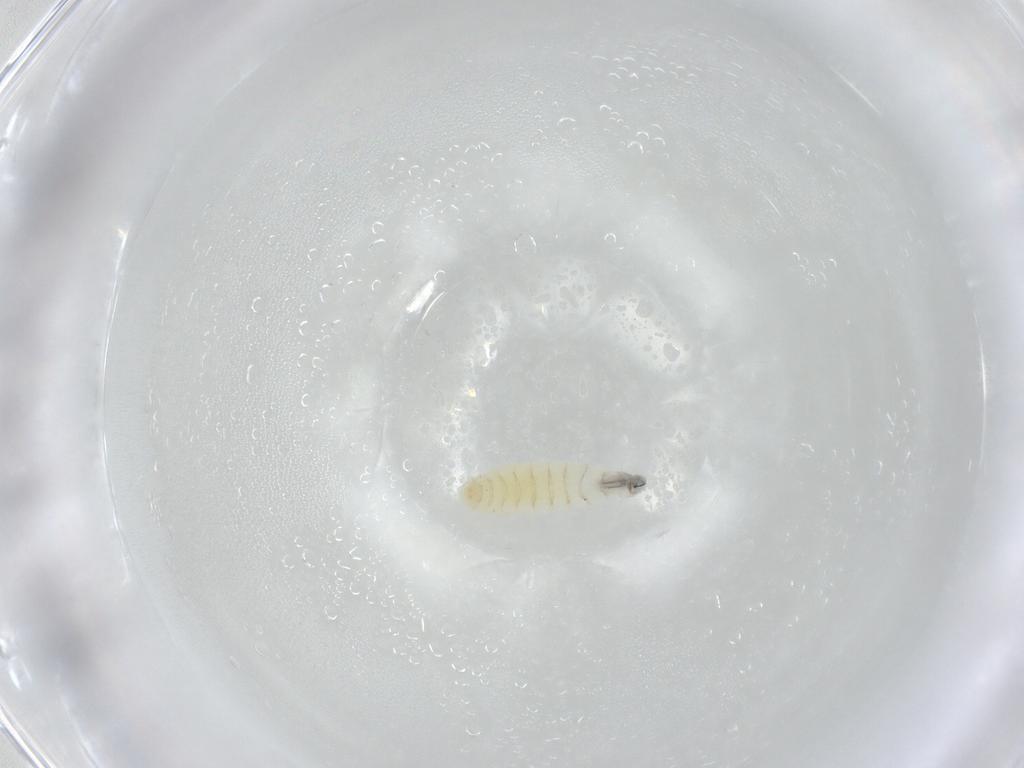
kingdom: Animalia
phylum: Arthropoda
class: Insecta
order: Diptera
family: Sarcophagidae
